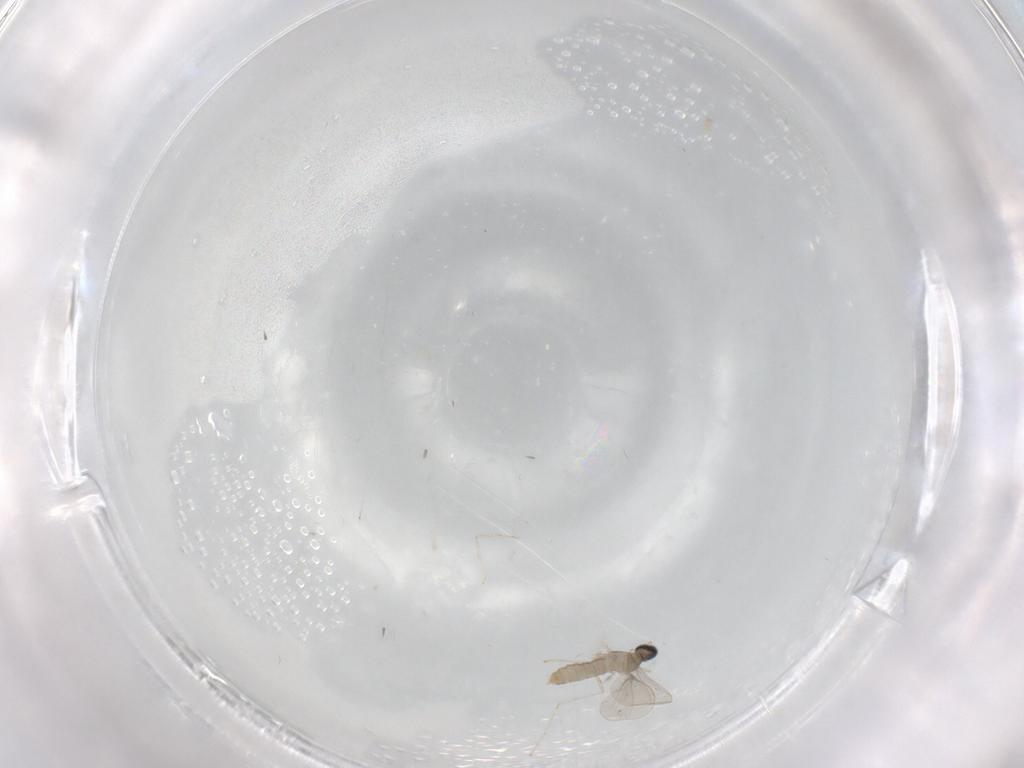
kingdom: Animalia
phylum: Arthropoda
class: Insecta
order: Diptera
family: Cecidomyiidae
